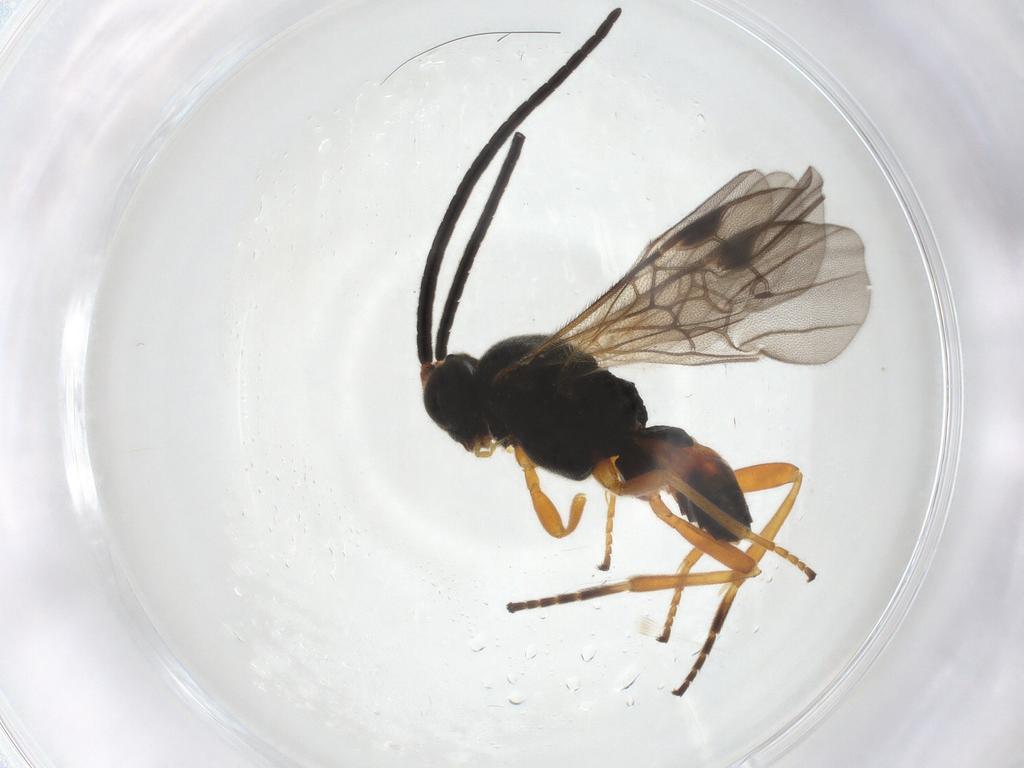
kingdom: Animalia
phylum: Arthropoda
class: Insecta
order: Hymenoptera
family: Braconidae
